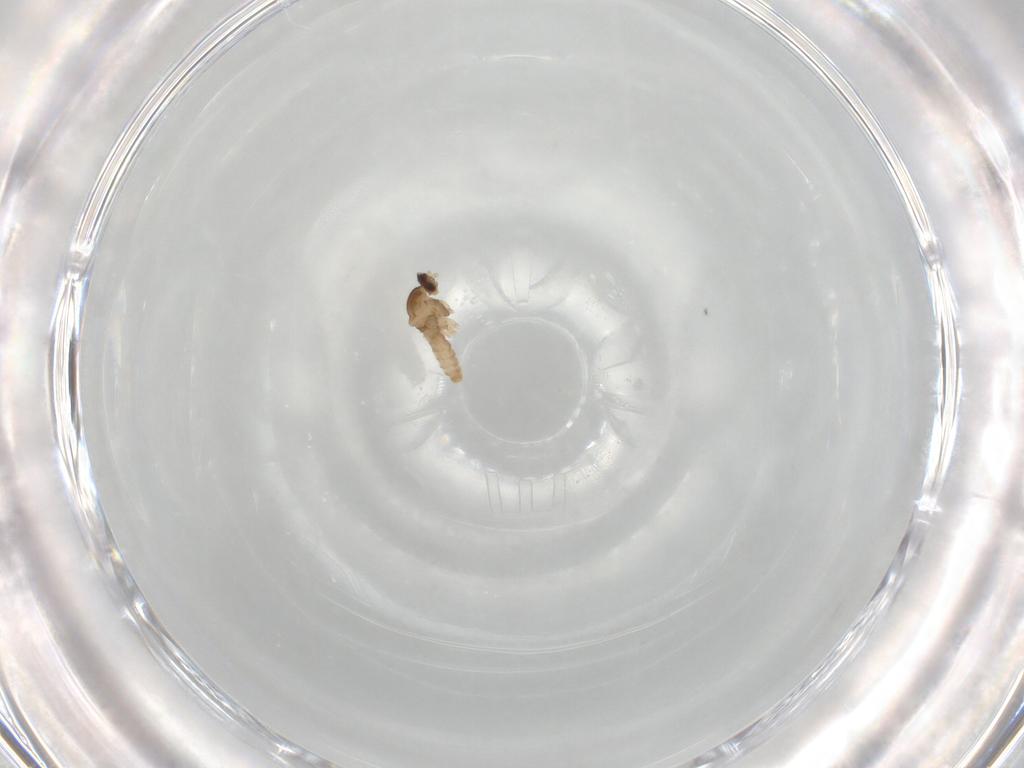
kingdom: Animalia
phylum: Arthropoda
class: Insecta
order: Diptera
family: Cecidomyiidae
